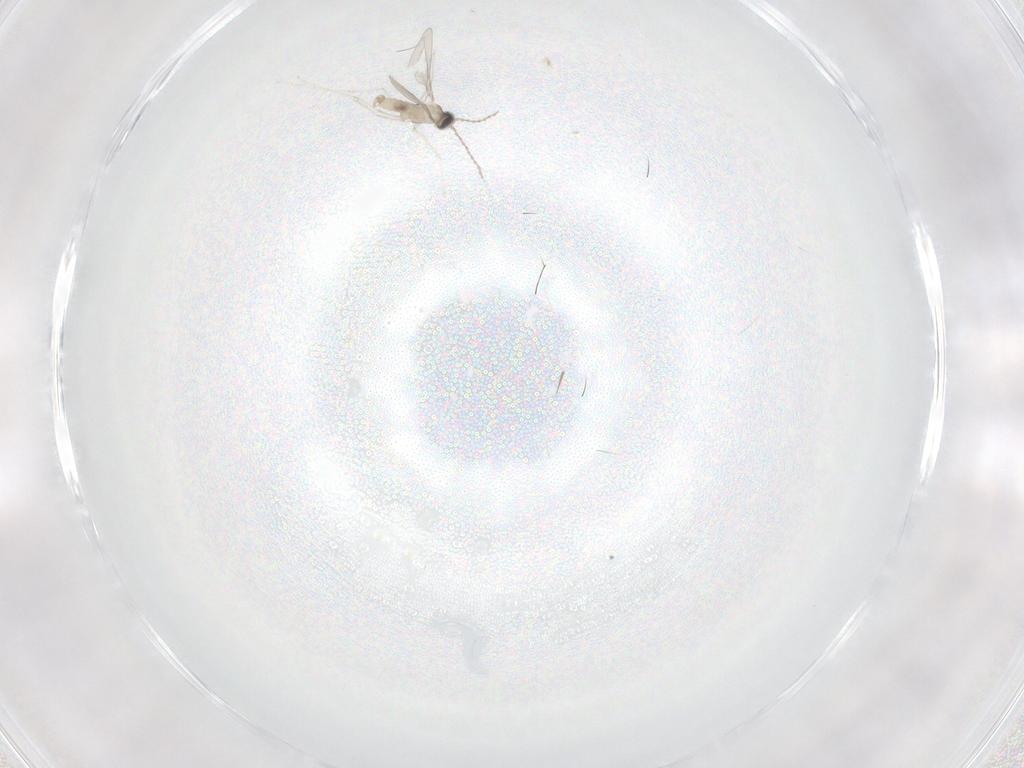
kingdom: Animalia
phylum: Arthropoda
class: Insecta
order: Diptera
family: Cecidomyiidae
